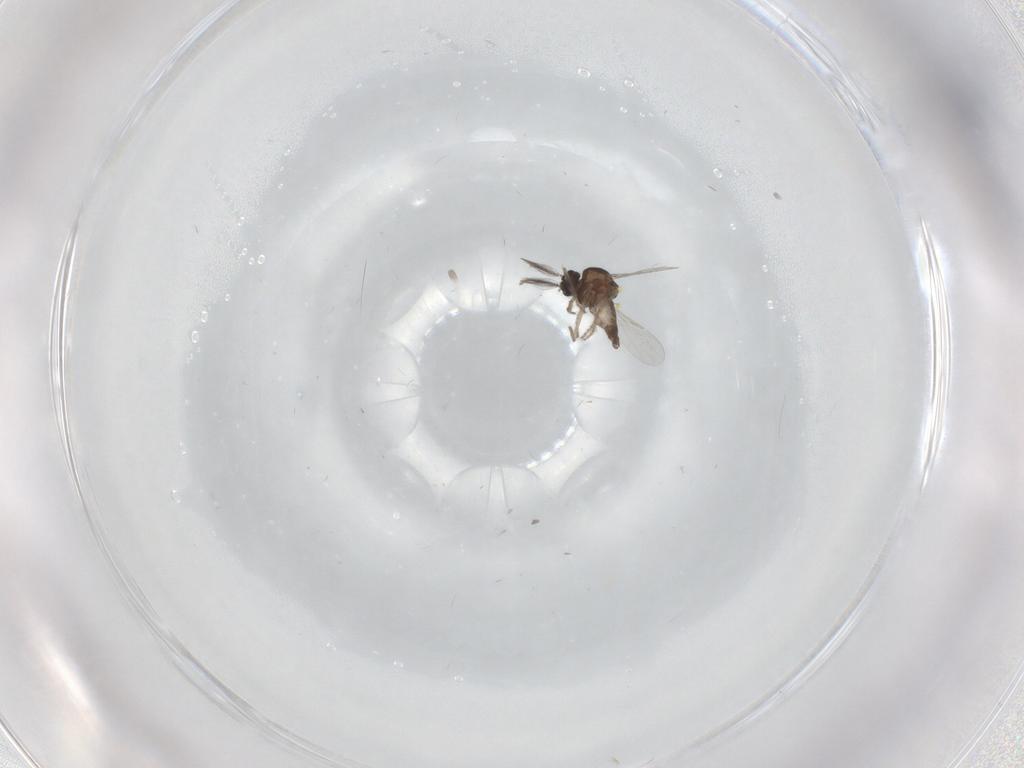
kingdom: Animalia
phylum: Arthropoda
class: Insecta
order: Diptera
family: Ceratopogonidae
